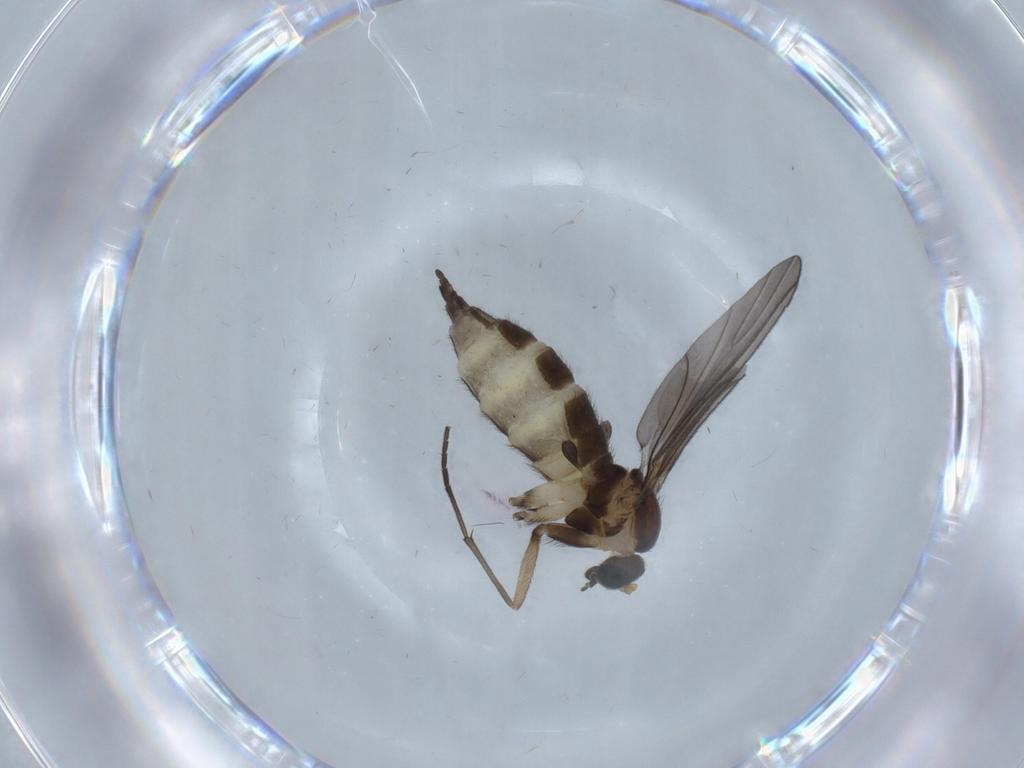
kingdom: Animalia
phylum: Arthropoda
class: Insecta
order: Diptera
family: Sciaridae
